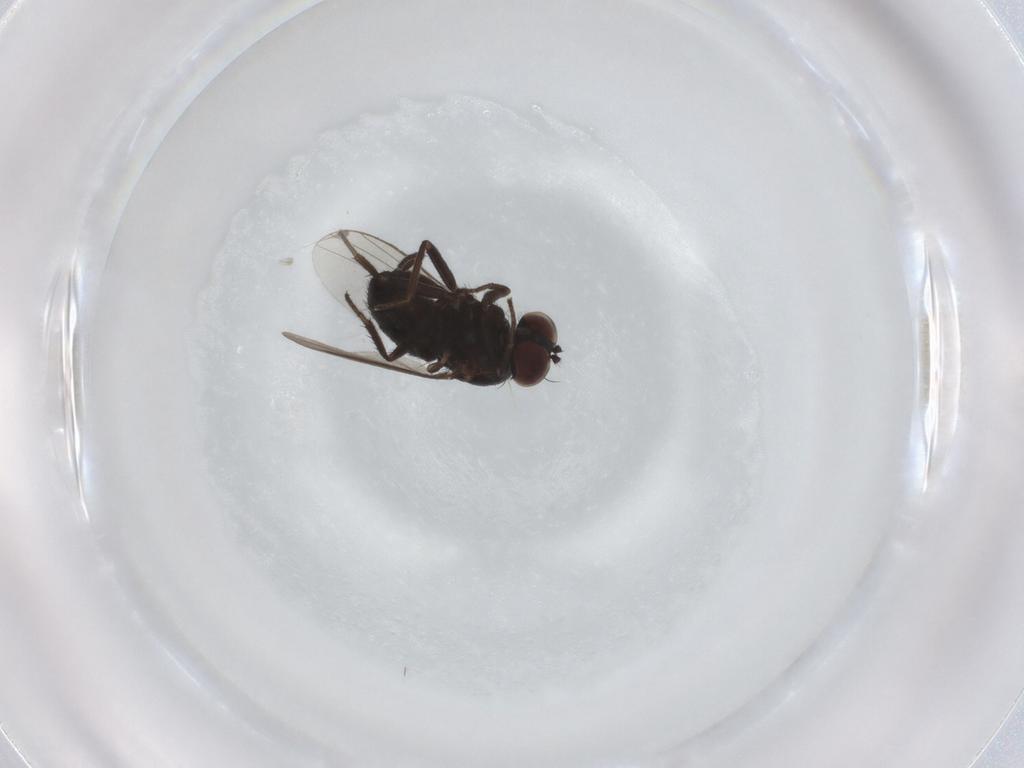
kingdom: Animalia
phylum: Arthropoda
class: Insecta
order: Diptera
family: Dolichopodidae
